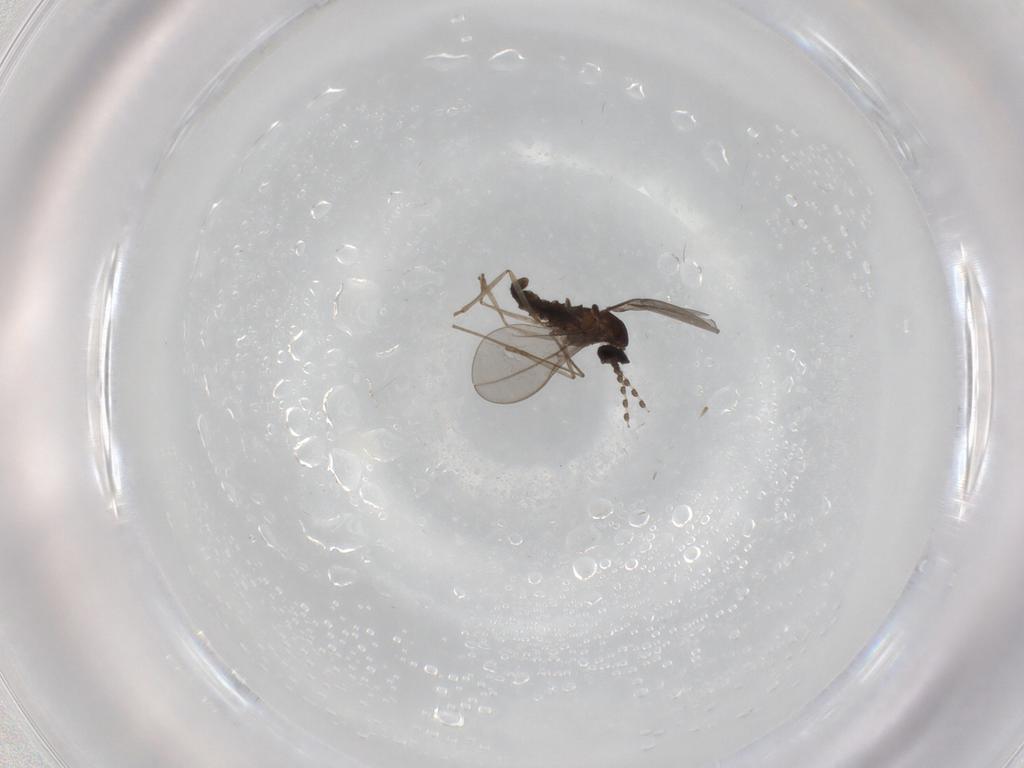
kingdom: Animalia
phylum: Arthropoda
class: Insecta
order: Diptera
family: Cecidomyiidae
